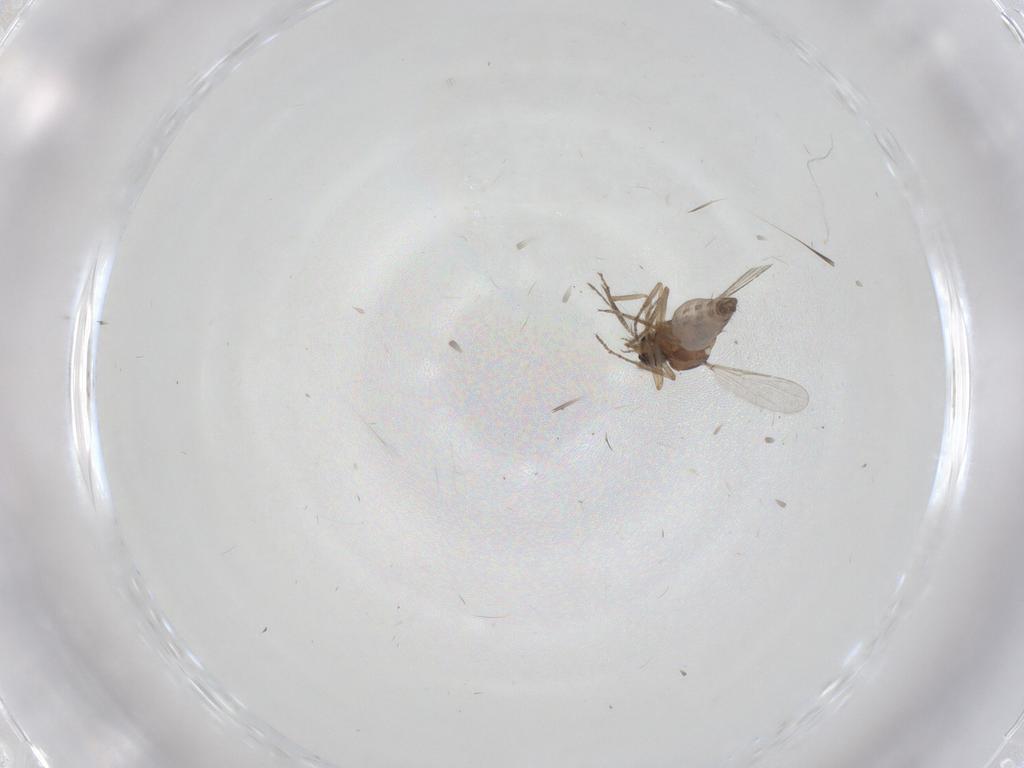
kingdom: Animalia
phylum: Arthropoda
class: Insecta
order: Diptera
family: Ceratopogonidae
